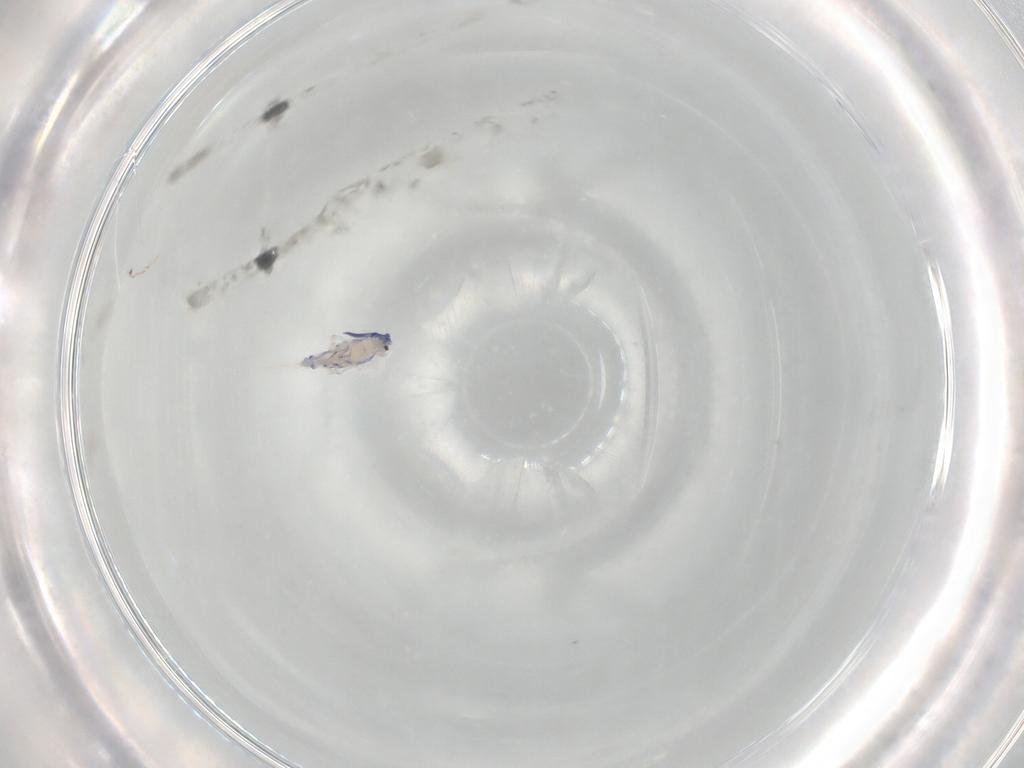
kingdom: Animalia
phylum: Arthropoda
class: Collembola
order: Entomobryomorpha
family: Entomobryidae
